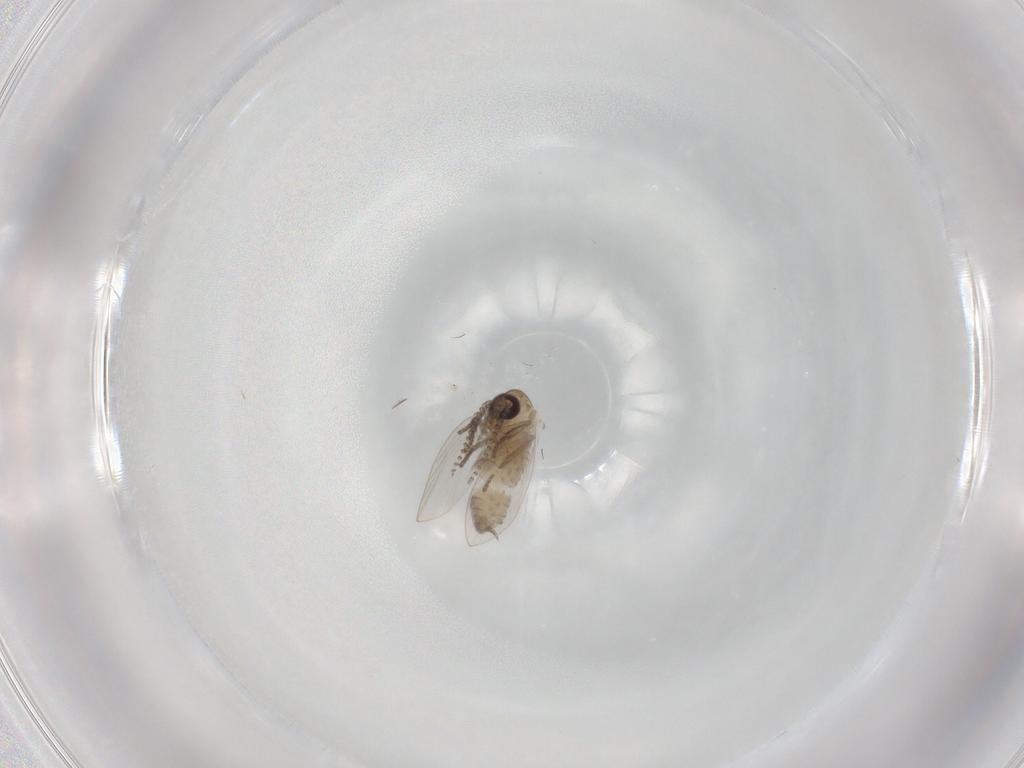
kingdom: Animalia
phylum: Arthropoda
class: Insecta
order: Diptera
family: Psychodidae
